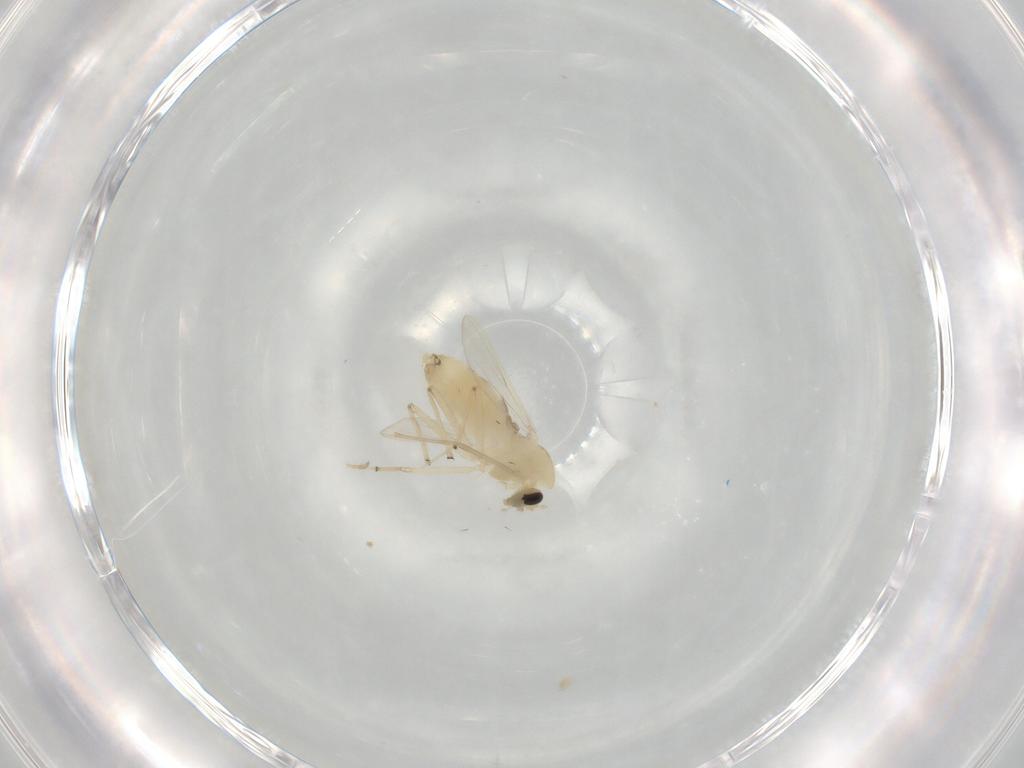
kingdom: Animalia
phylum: Arthropoda
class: Insecta
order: Diptera
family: Chironomidae
